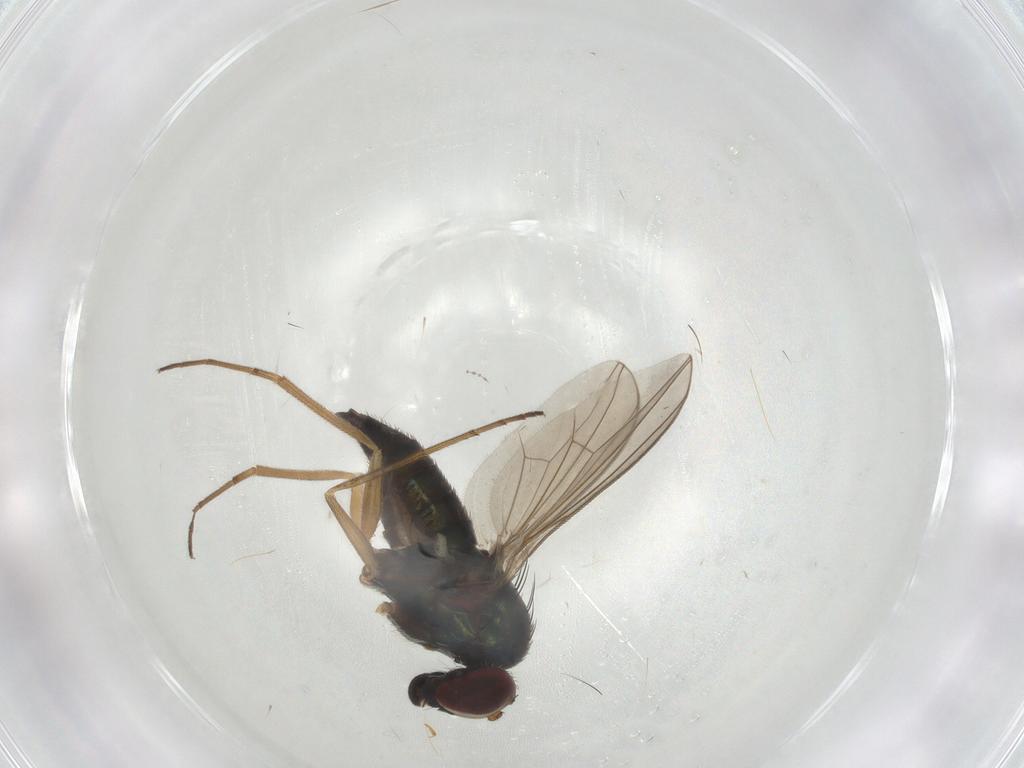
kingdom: Animalia
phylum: Arthropoda
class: Insecta
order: Diptera
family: Dolichopodidae
